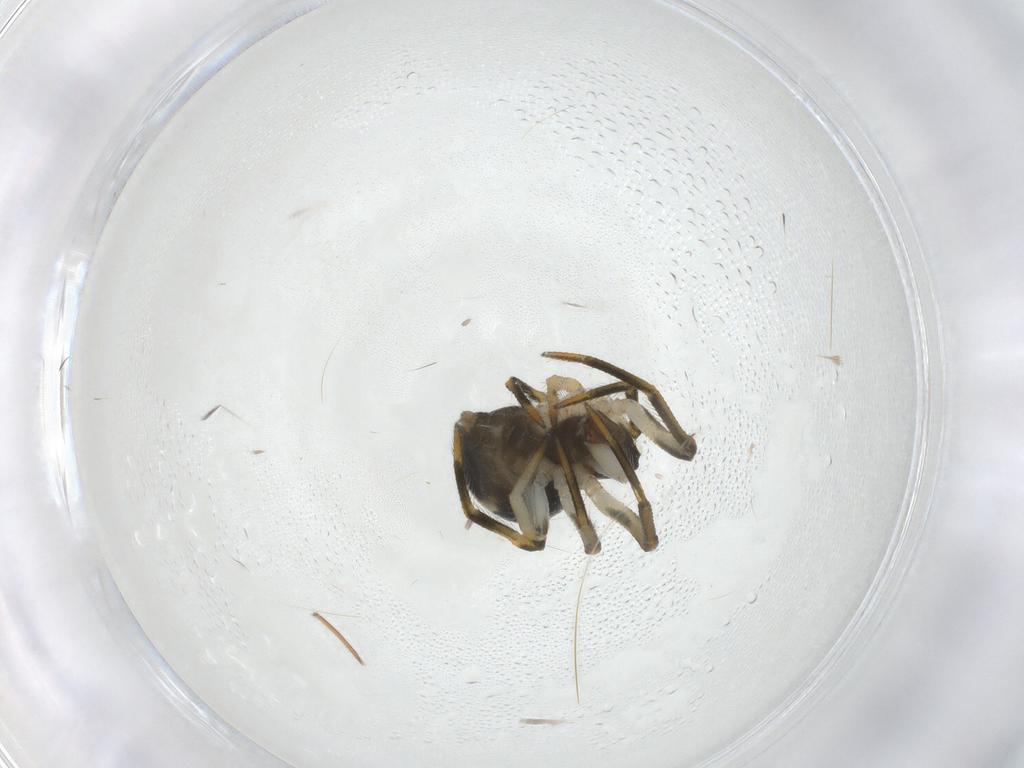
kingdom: Animalia
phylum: Arthropoda
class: Arachnida
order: Araneae
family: Theridiidae
